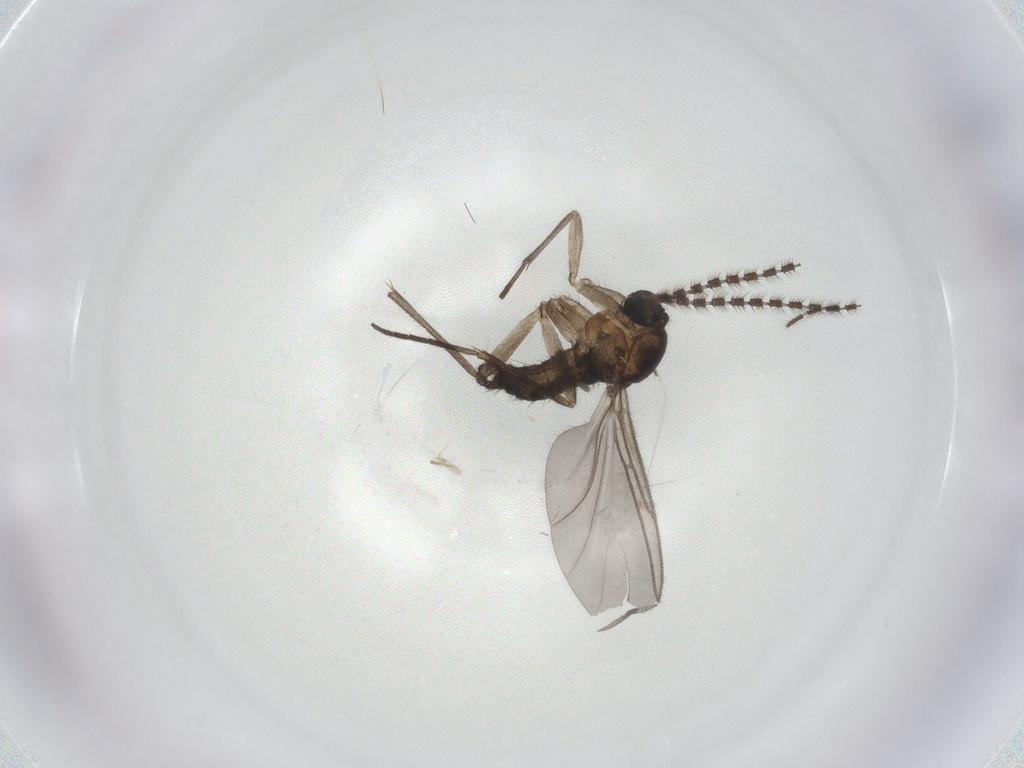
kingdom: Animalia
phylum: Arthropoda
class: Insecta
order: Diptera
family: Sciaridae
